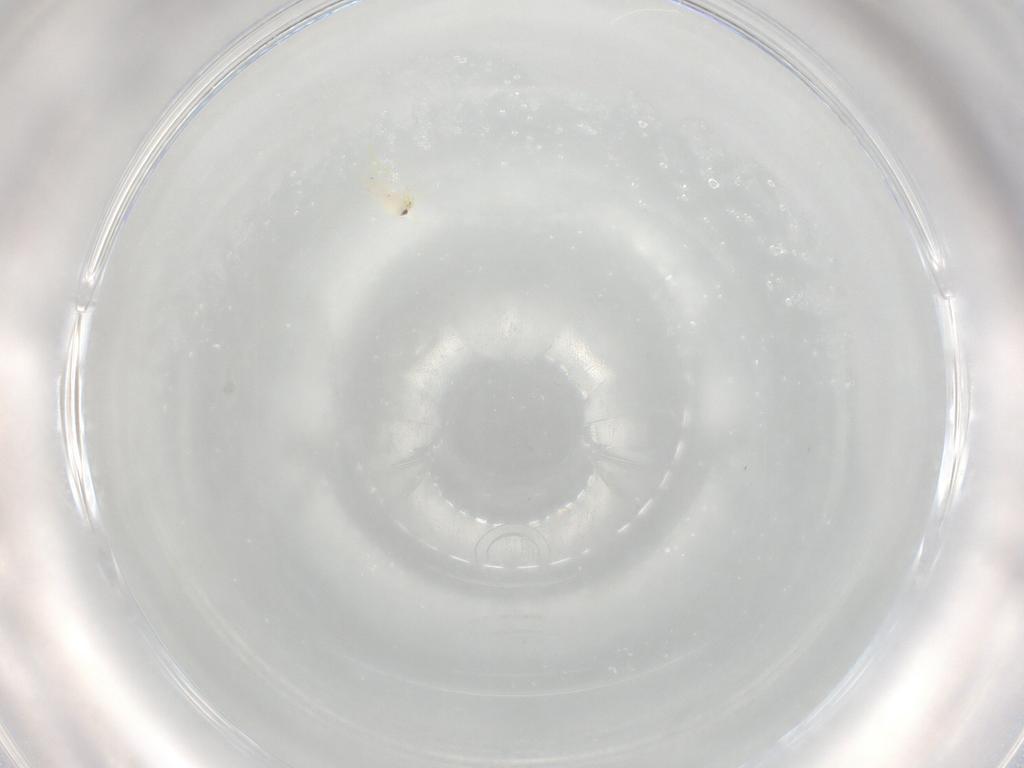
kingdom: Animalia
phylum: Arthropoda
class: Insecta
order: Hemiptera
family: Aleyrodidae
